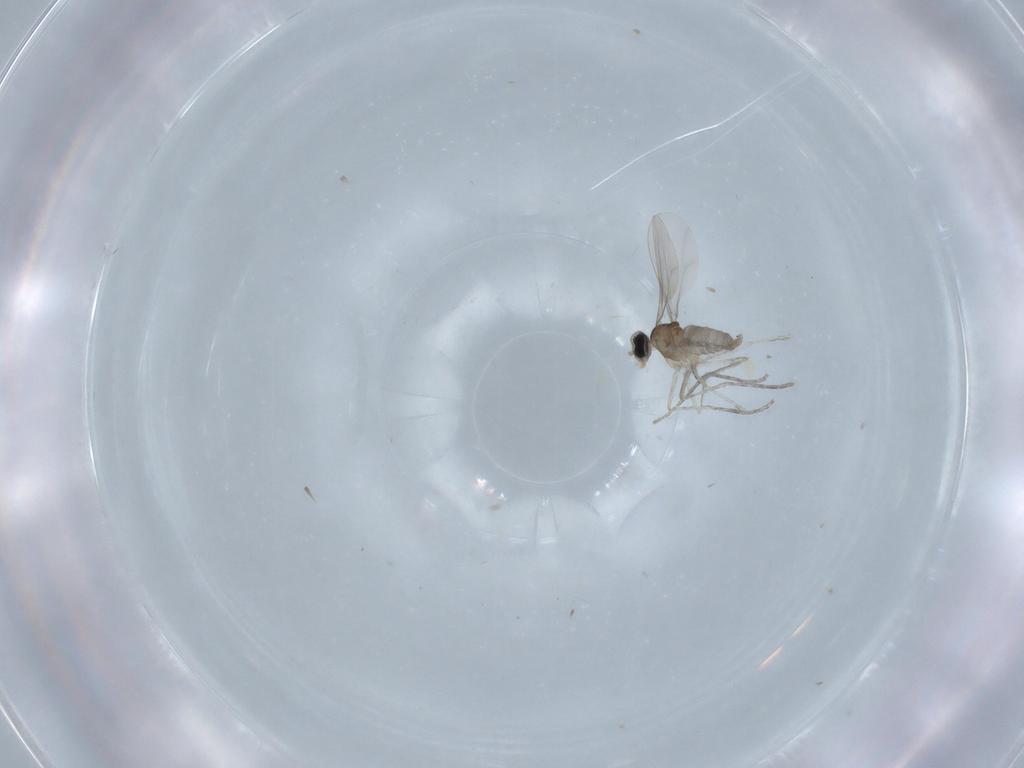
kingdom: Animalia
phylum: Arthropoda
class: Insecta
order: Diptera
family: Cecidomyiidae
